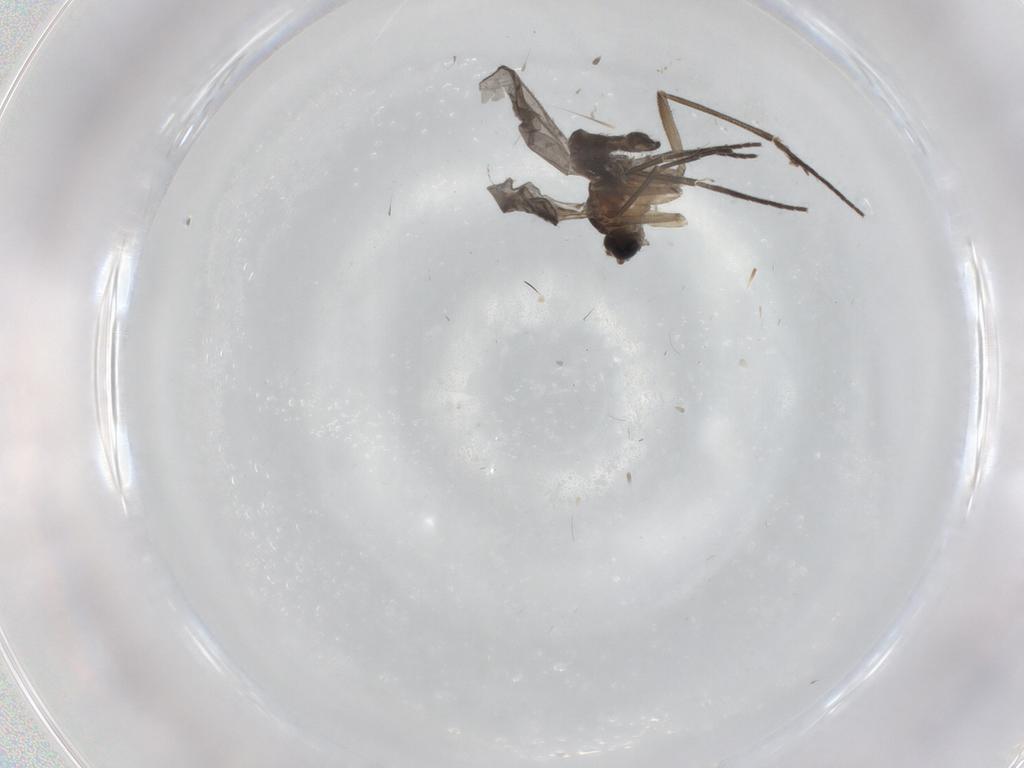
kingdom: Animalia
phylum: Arthropoda
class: Insecta
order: Diptera
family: Sciaridae
